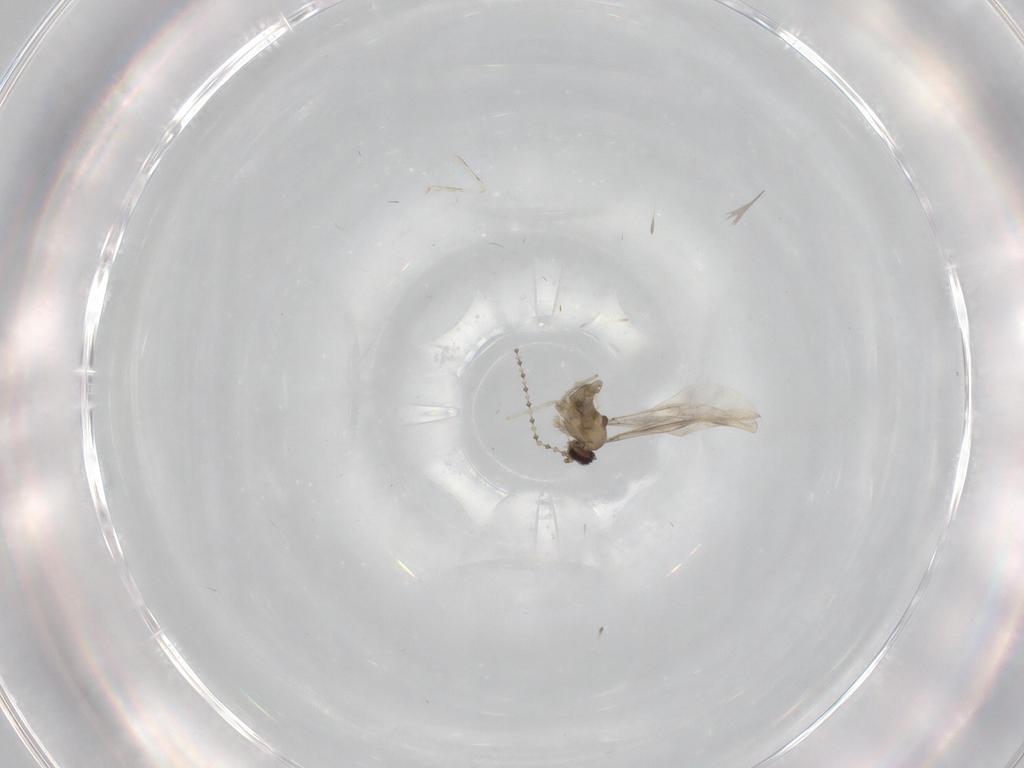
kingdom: Animalia
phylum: Arthropoda
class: Insecta
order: Diptera
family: Cecidomyiidae
